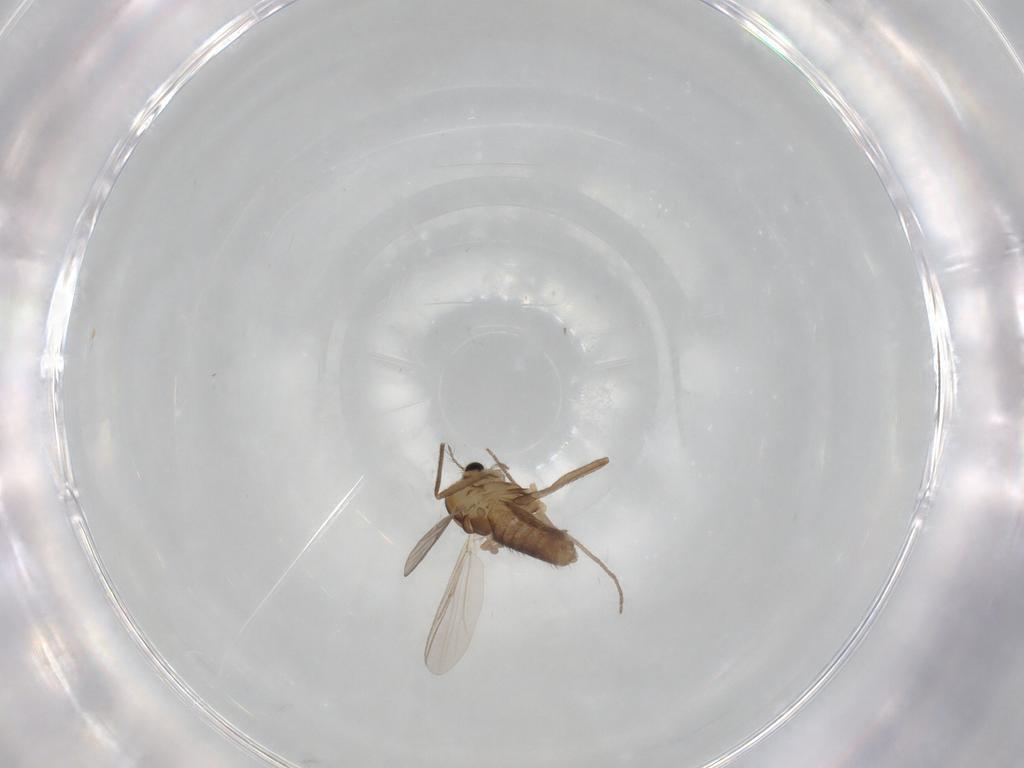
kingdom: Animalia
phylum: Arthropoda
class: Insecta
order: Diptera
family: Chironomidae
